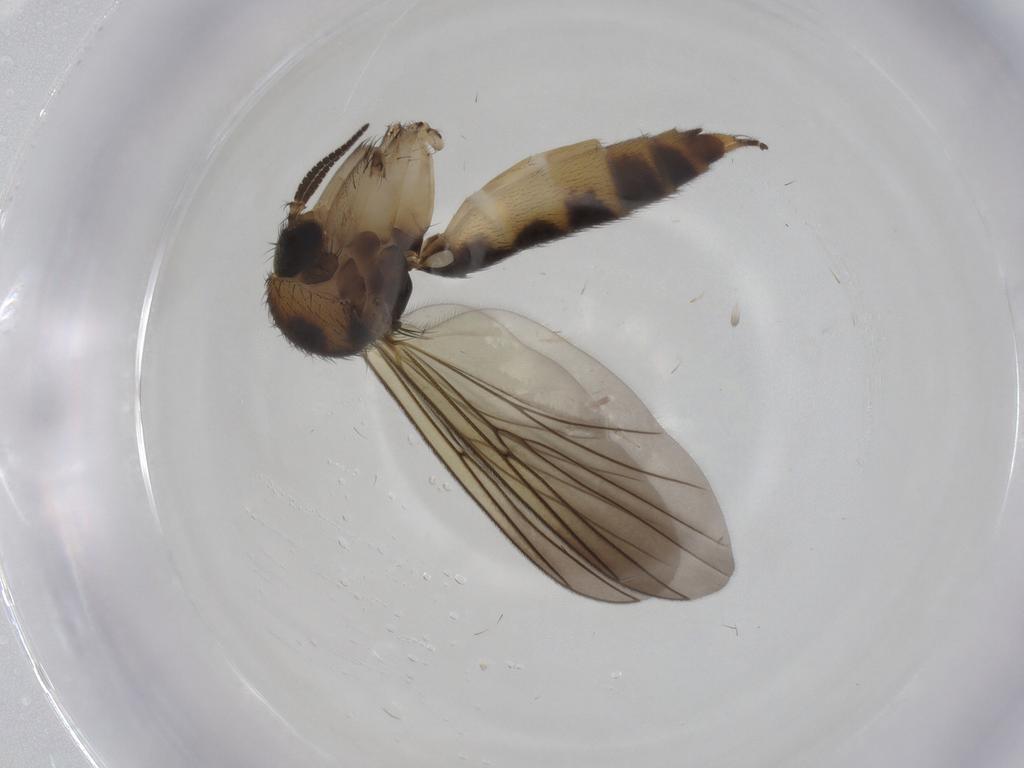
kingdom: Animalia
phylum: Arthropoda
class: Insecta
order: Diptera
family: Mycetophilidae
